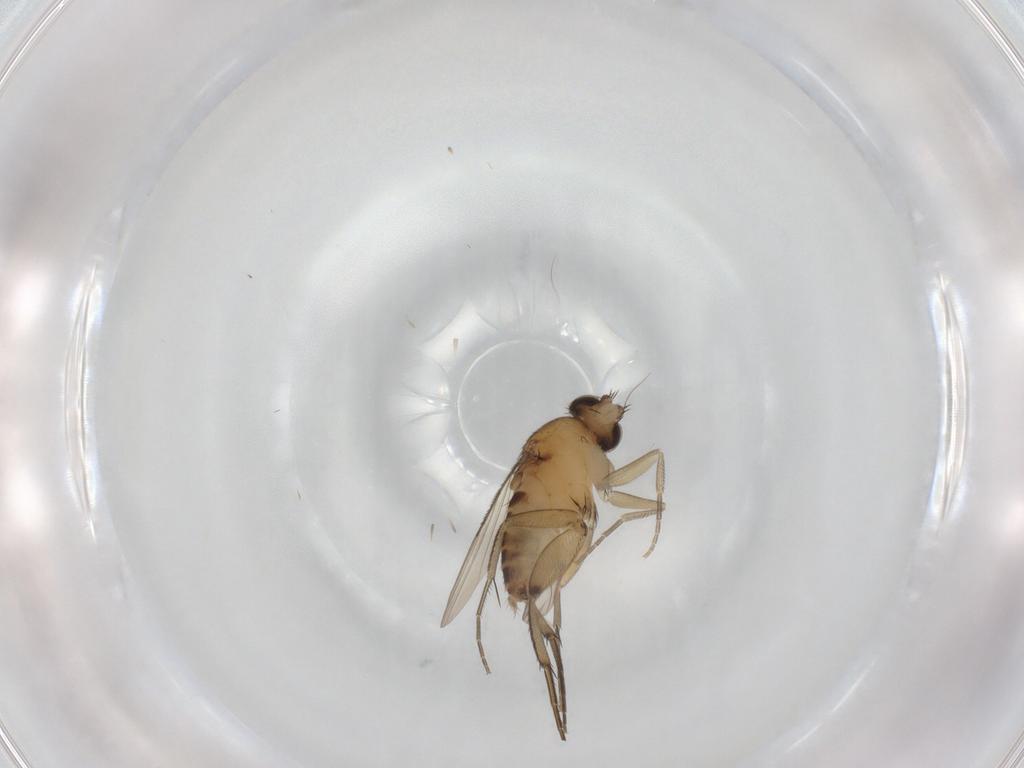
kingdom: Animalia
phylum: Arthropoda
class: Insecta
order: Diptera
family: Phoridae
